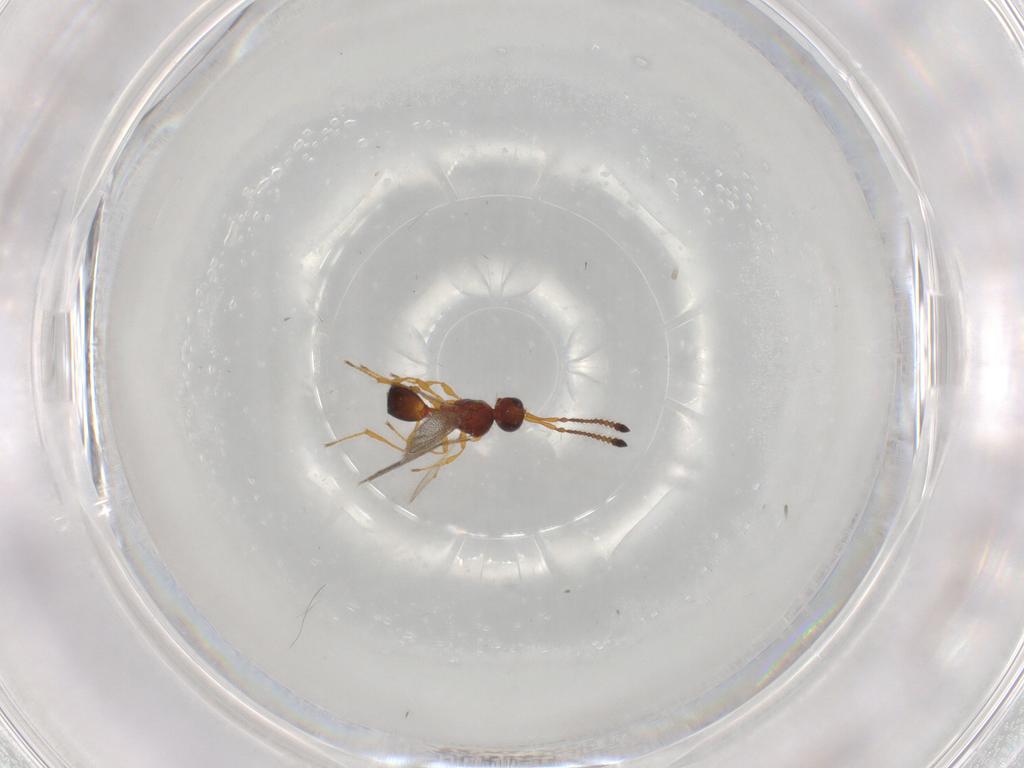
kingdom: Animalia
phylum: Arthropoda
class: Insecta
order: Hymenoptera
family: Diapriidae
